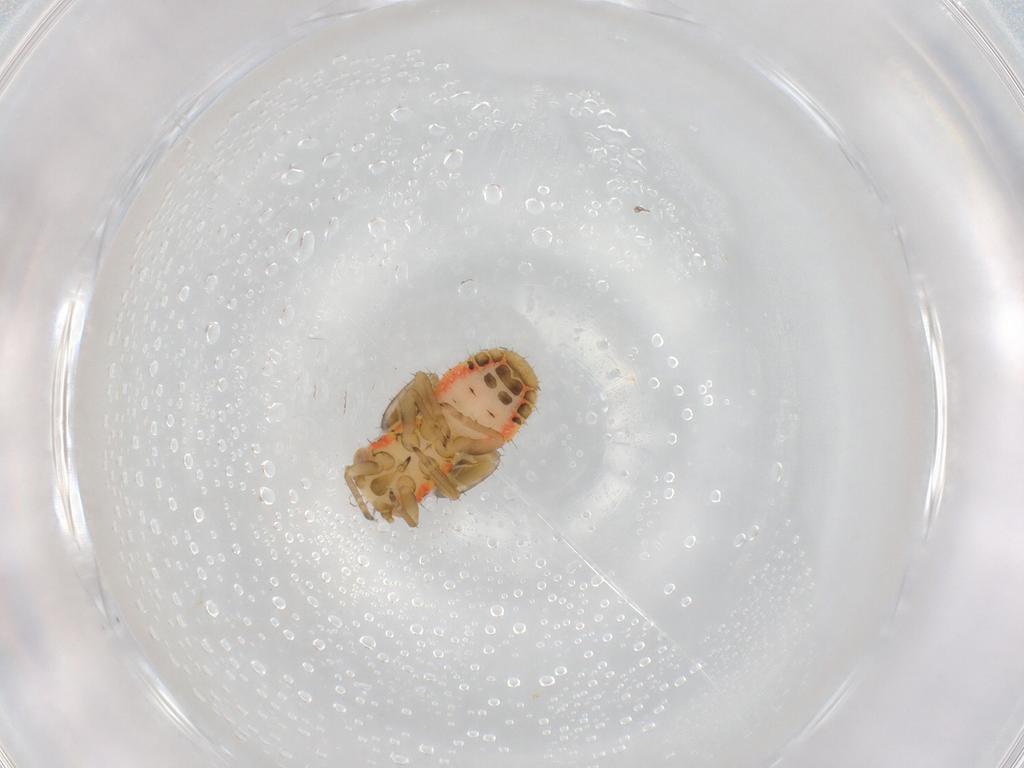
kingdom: Animalia
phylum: Arthropoda
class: Insecta
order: Hemiptera
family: Psyllidae
